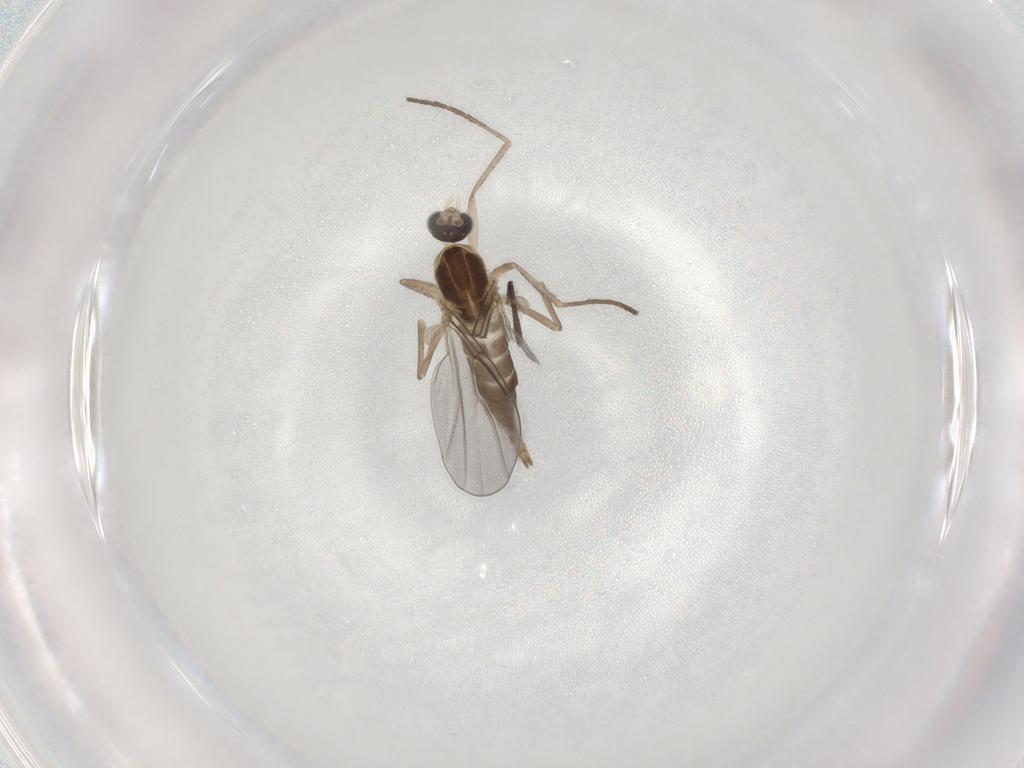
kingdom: Animalia
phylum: Arthropoda
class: Insecta
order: Diptera
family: Cecidomyiidae
